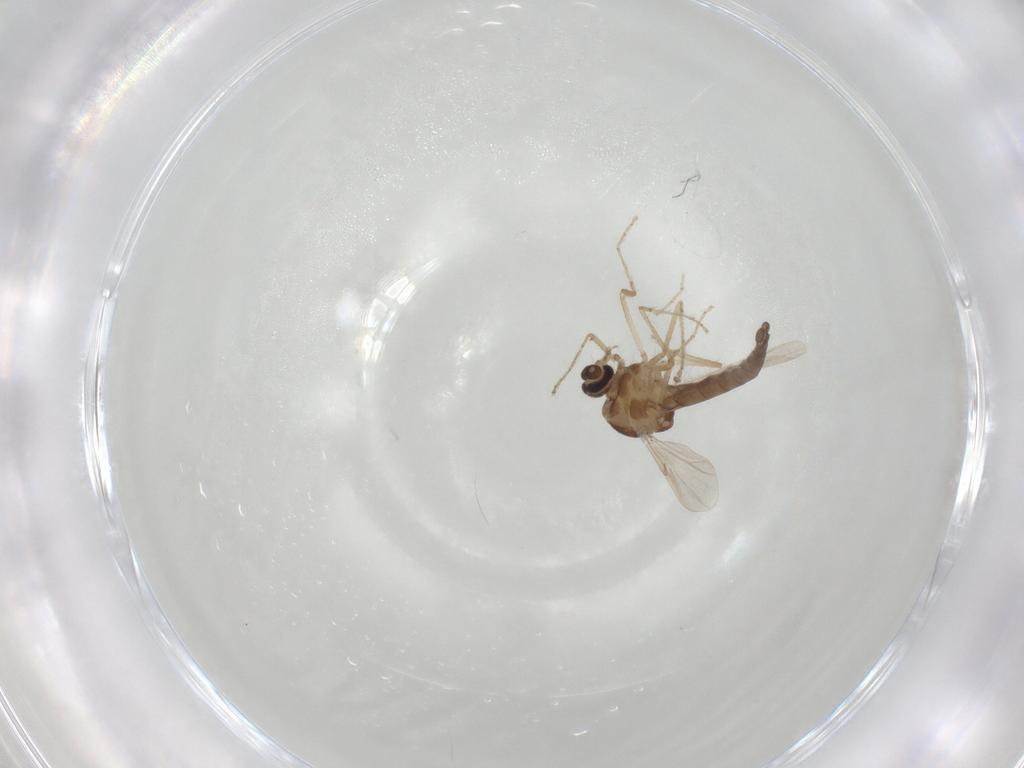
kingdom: Animalia
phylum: Arthropoda
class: Insecta
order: Diptera
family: Ceratopogonidae
